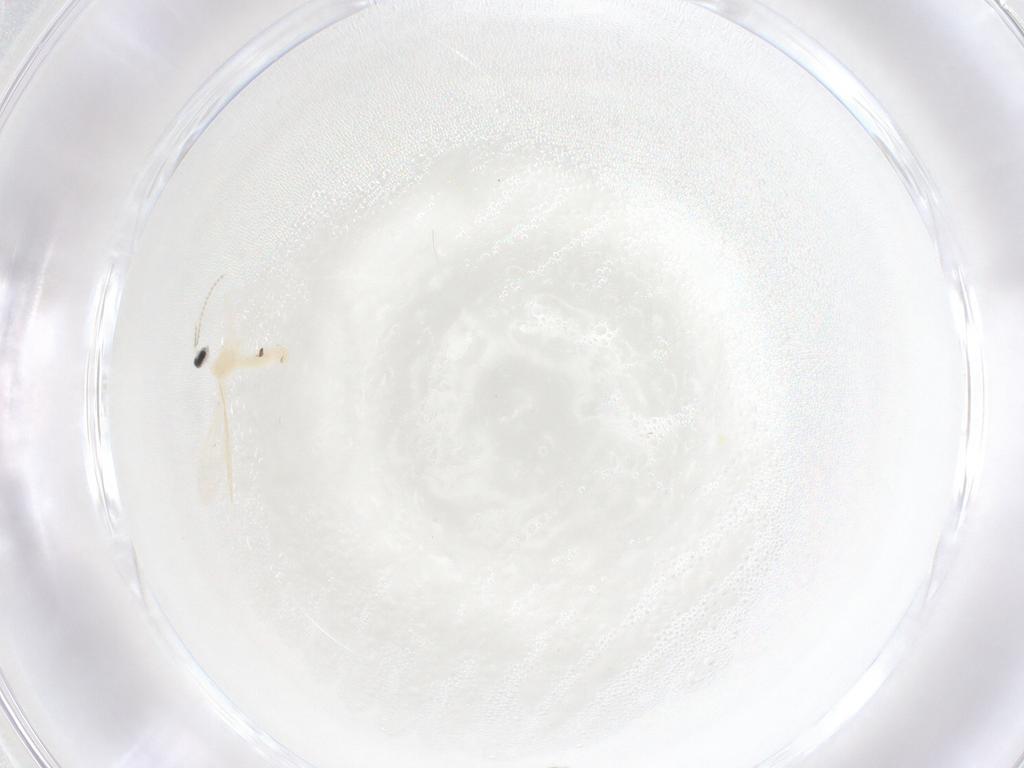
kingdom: Animalia
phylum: Arthropoda
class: Insecta
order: Diptera
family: Cecidomyiidae
